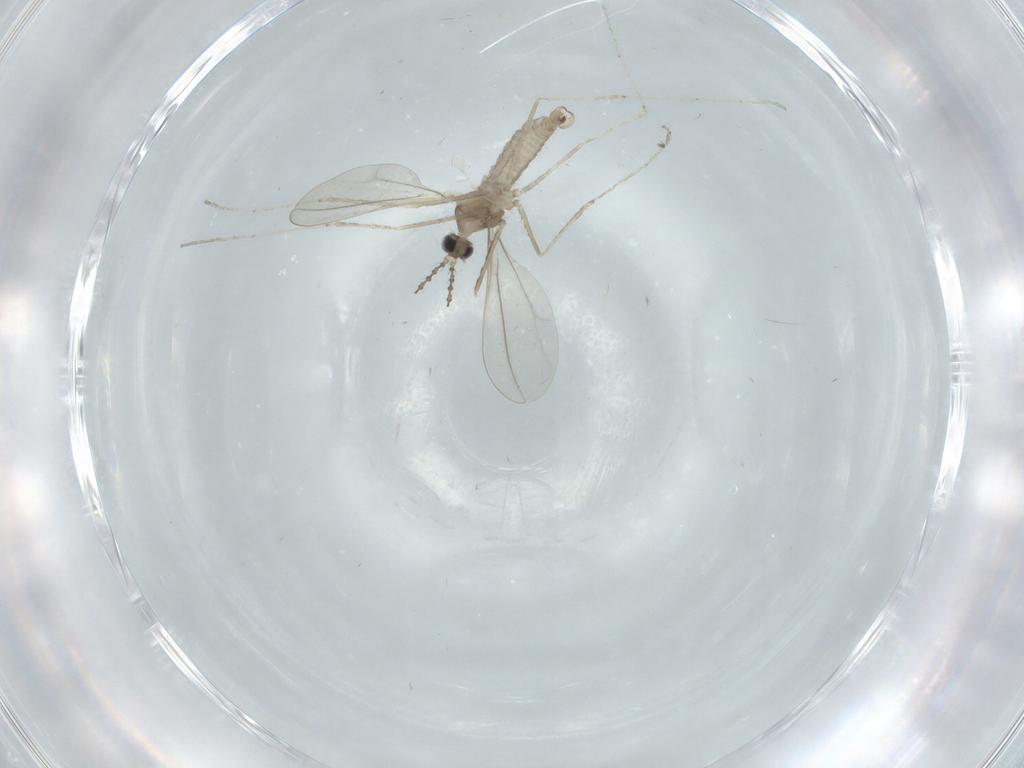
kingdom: Animalia
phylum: Arthropoda
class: Insecta
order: Diptera
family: Cecidomyiidae
